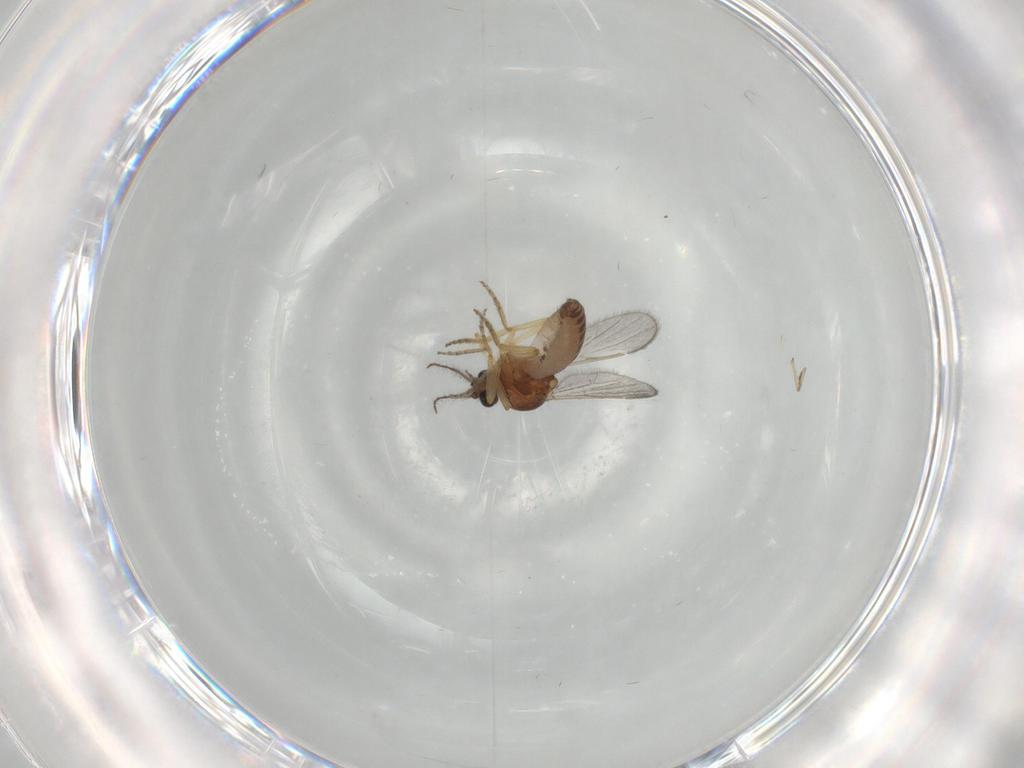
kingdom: Animalia
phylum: Arthropoda
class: Insecta
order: Diptera
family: Ceratopogonidae
